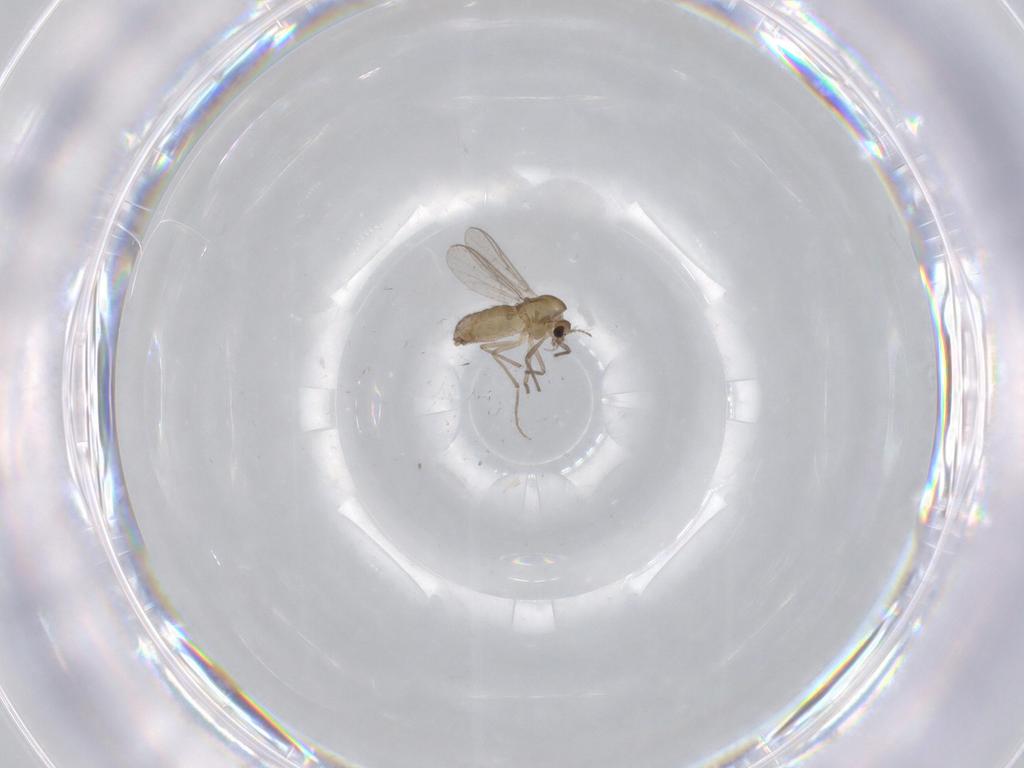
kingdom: Animalia
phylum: Arthropoda
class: Insecta
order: Diptera
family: Chironomidae
